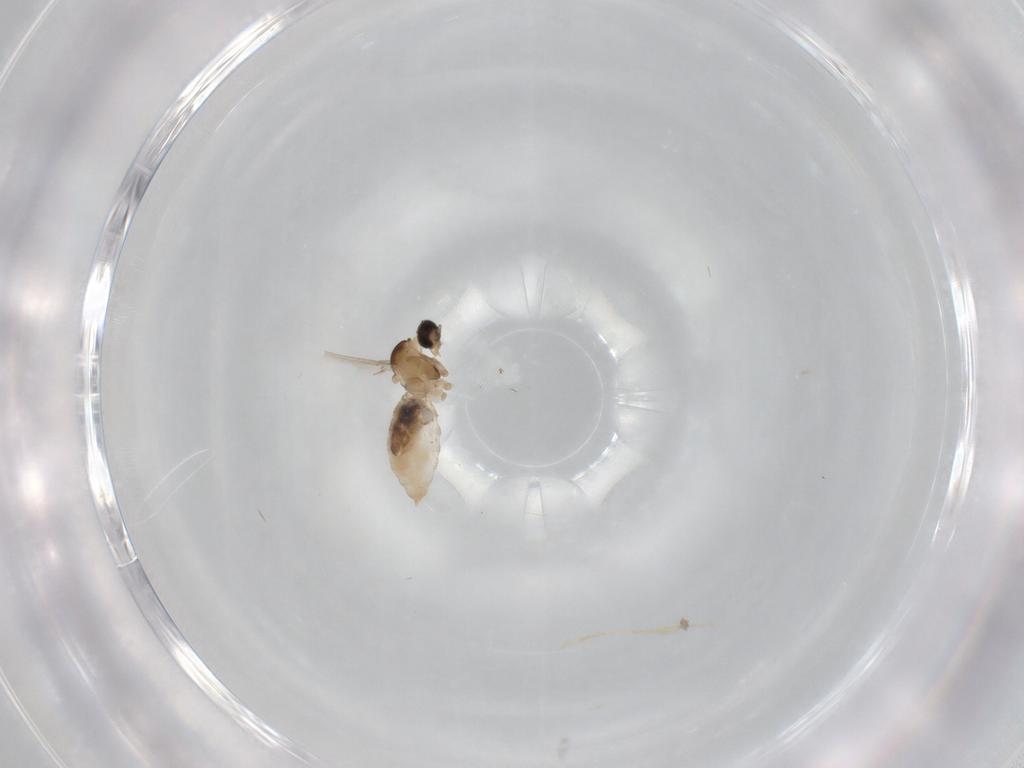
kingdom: Animalia
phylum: Arthropoda
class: Insecta
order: Diptera
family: Cecidomyiidae
